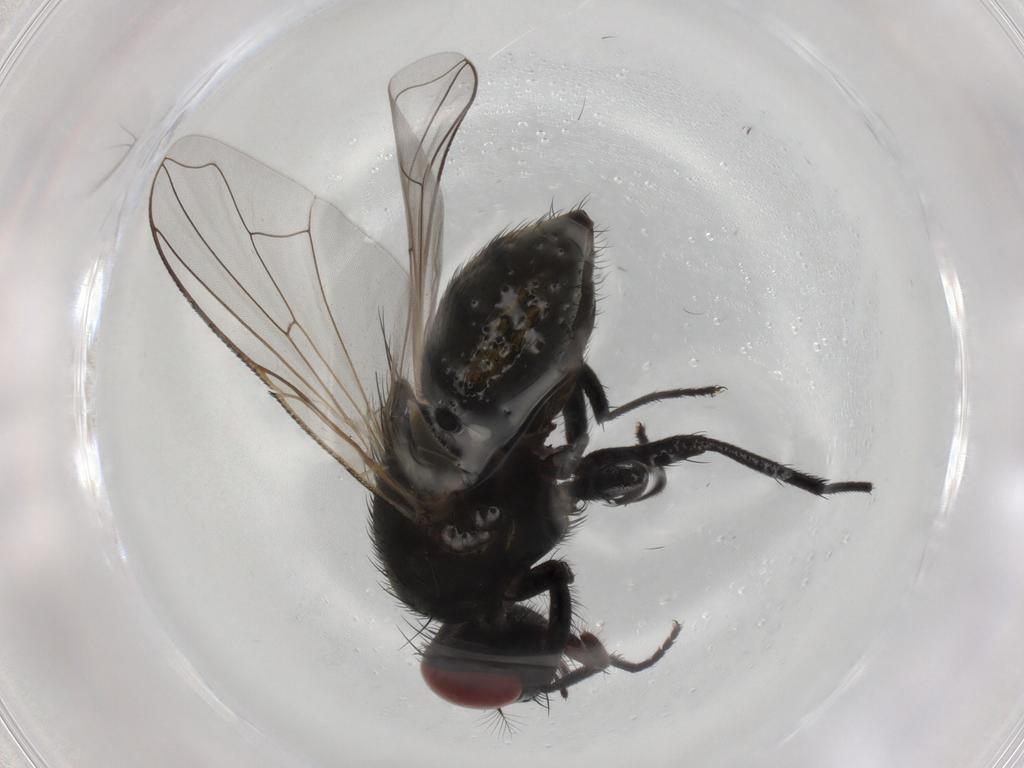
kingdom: Animalia
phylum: Arthropoda
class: Insecta
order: Diptera
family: Muscidae
